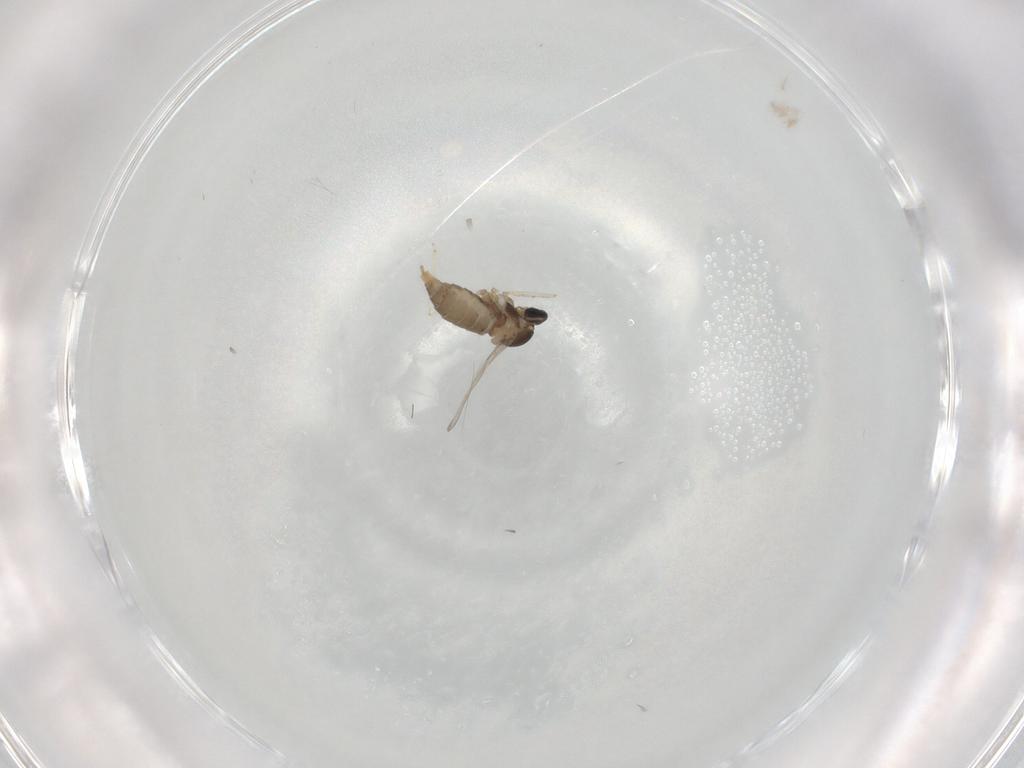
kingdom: Animalia
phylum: Arthropoda
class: Insecta
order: Diptera
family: Cecidomyiidae
